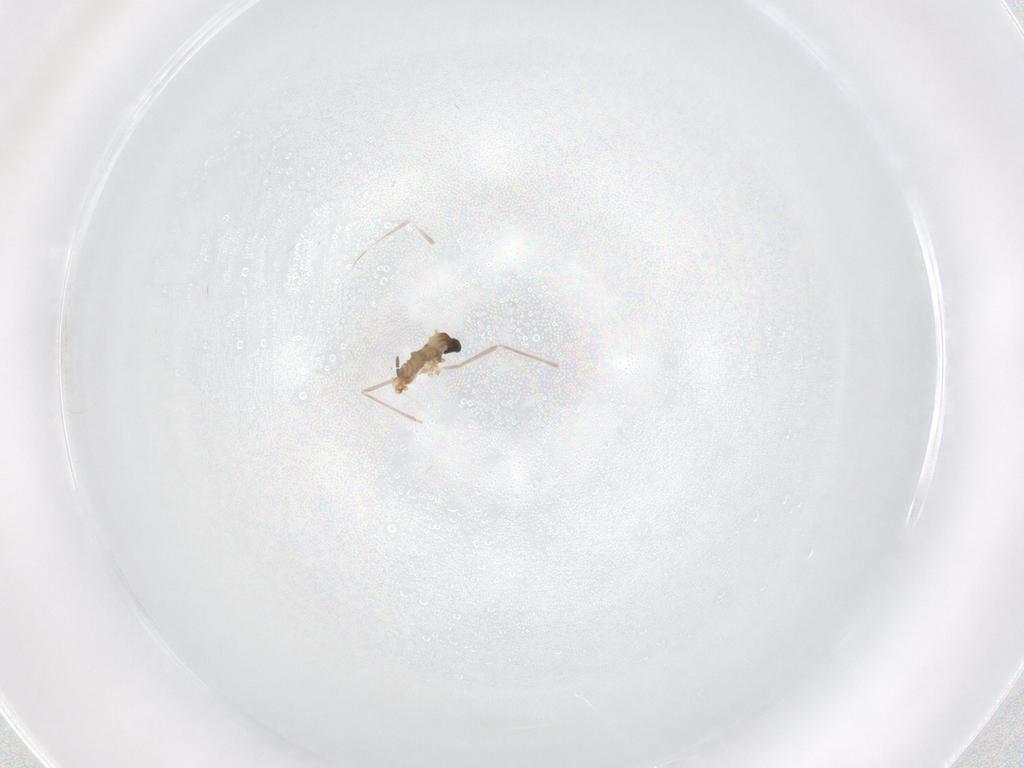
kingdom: Animalia
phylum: Arthropoda
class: Insecta
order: Diptera
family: Cecidomyiidae
